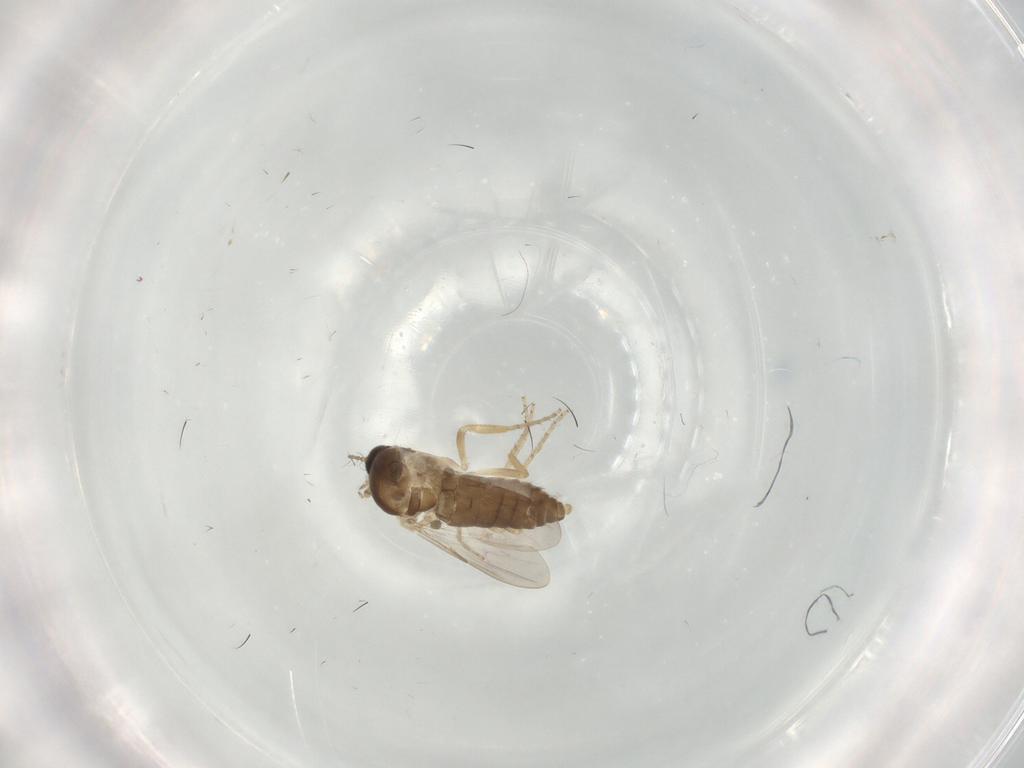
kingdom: Animalia
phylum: Arthropoda
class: Insecta
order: Diptera
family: Ceratopogonidae
